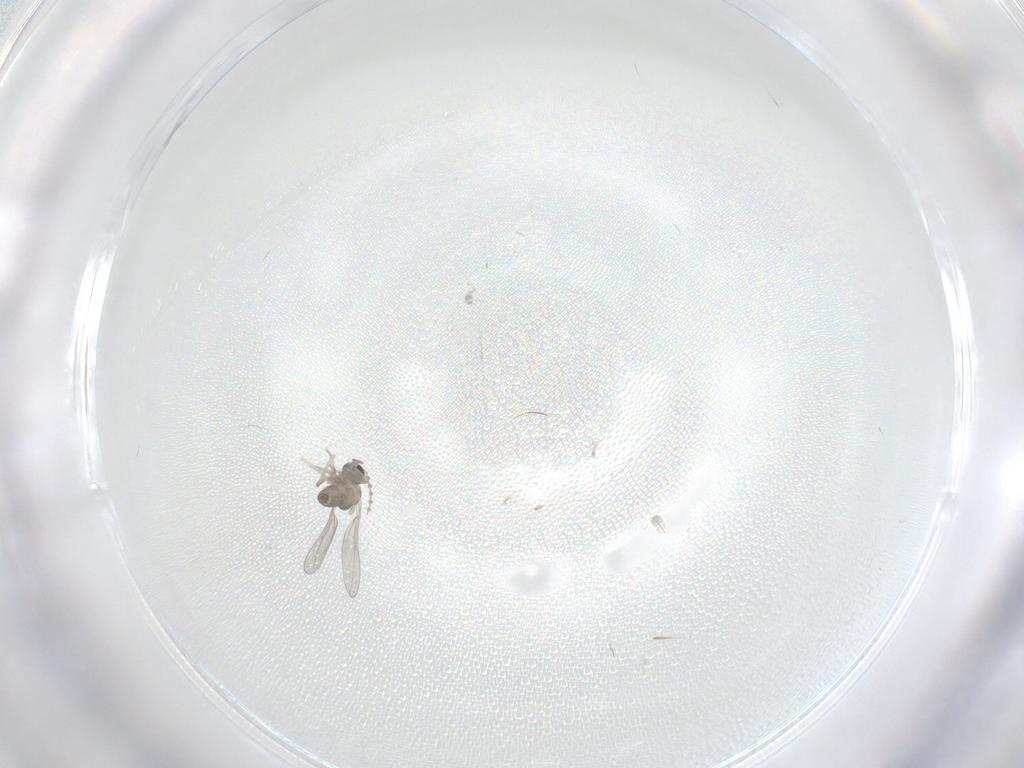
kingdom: Animalia
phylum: Arthropoda
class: Insecta
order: Diptera
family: Cecidomyiidae
